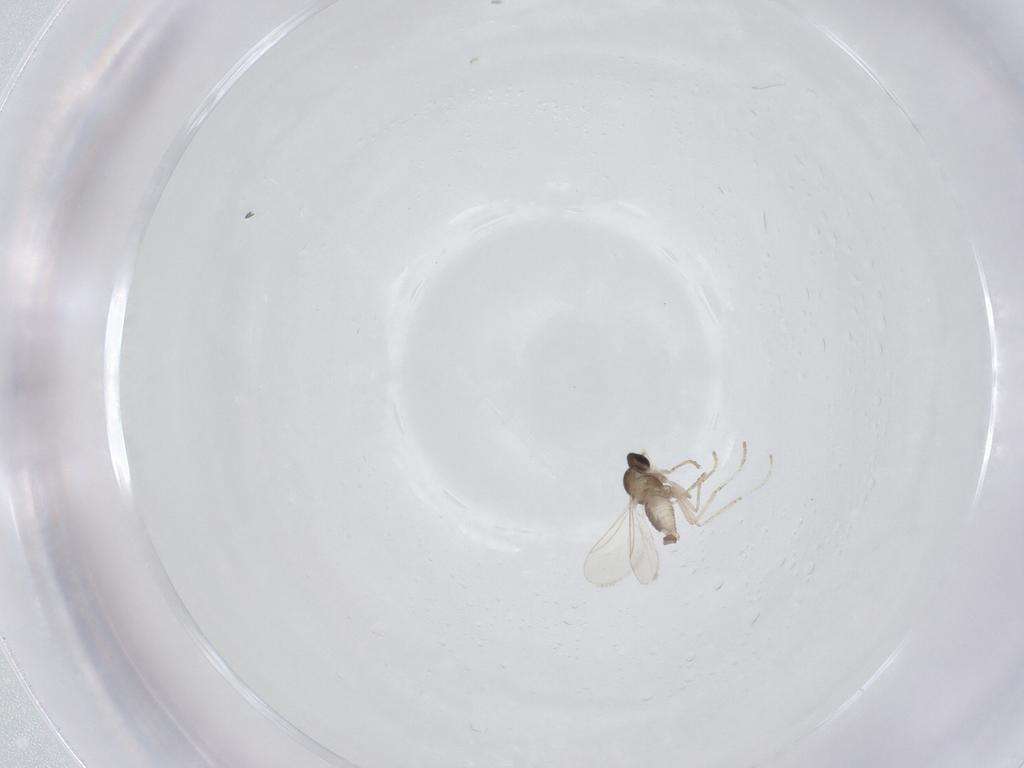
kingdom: Animalia
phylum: Arthropoda
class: Insecta
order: Diptera
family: Cecidomyiidae
